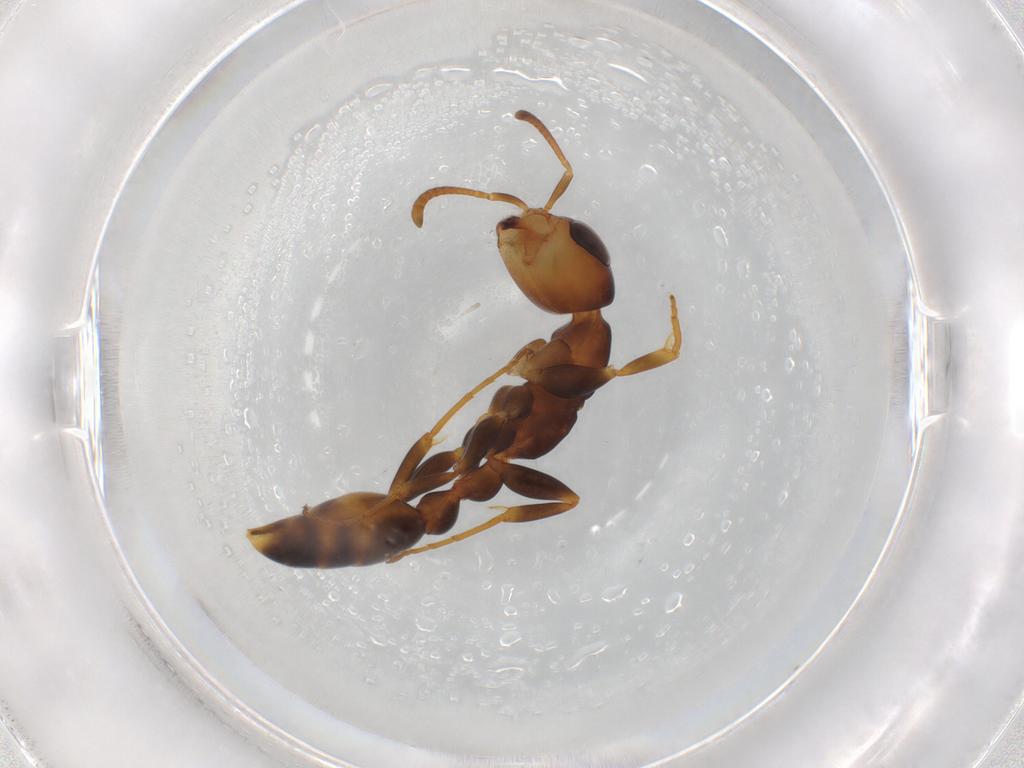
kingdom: Animalia
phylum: Arthropoda
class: Insecta
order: Hymenoptera
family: Formicidae
